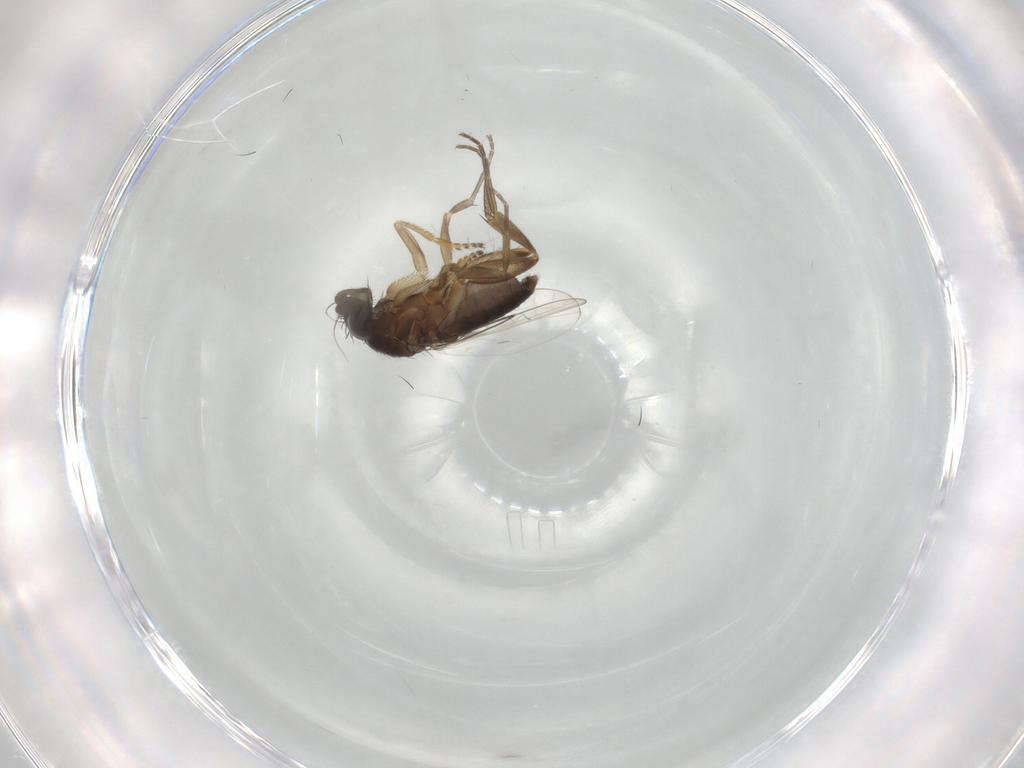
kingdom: Animalia
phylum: Arthropoda
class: Insecta
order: Diptera
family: Phoridae
